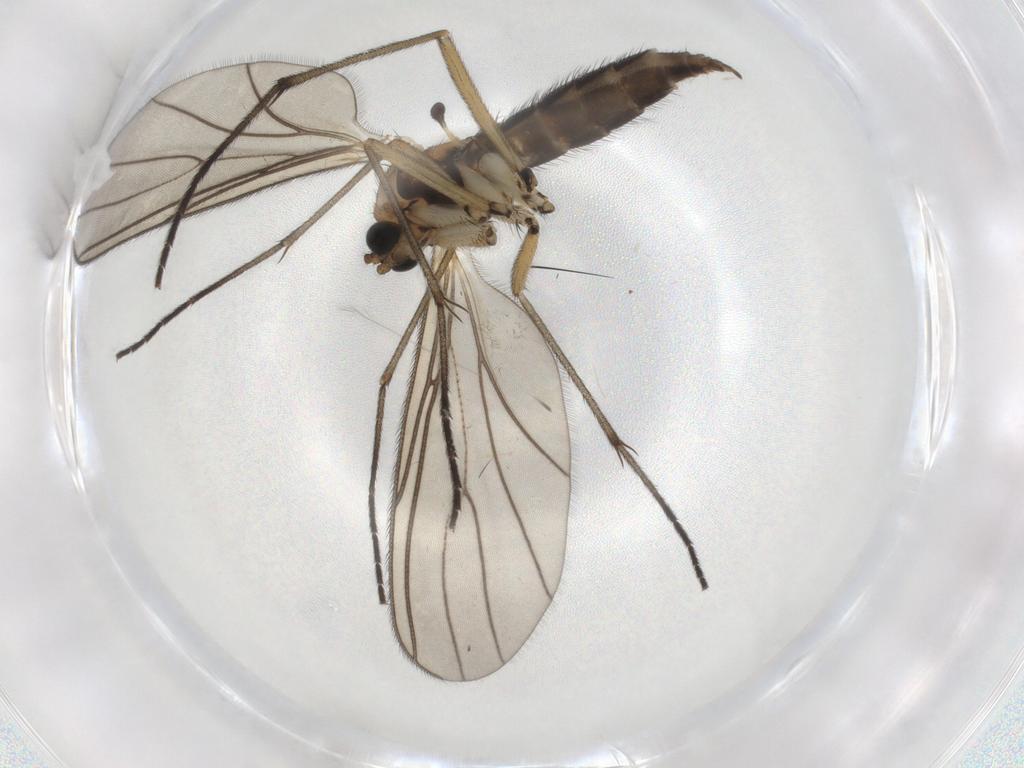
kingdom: Animalia
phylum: Arthropoda
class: Insecta
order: Diptera
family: Sciaridae
